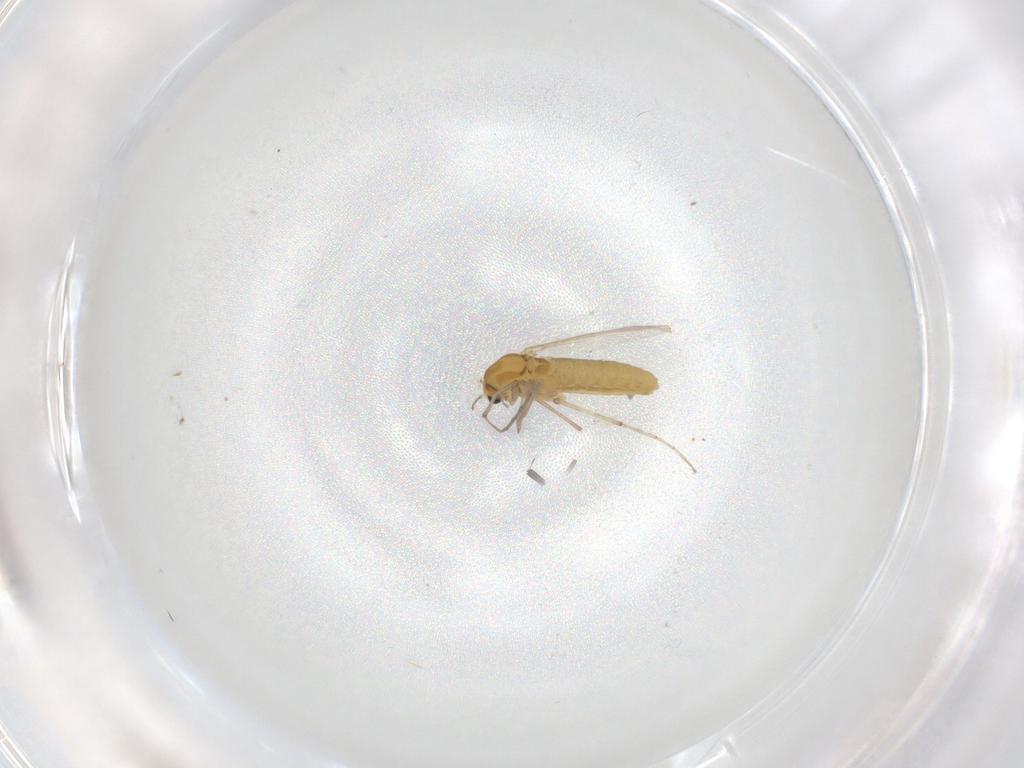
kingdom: Animalia
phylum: Arthropoda
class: Insecta
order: Diptera
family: Chironomidae
